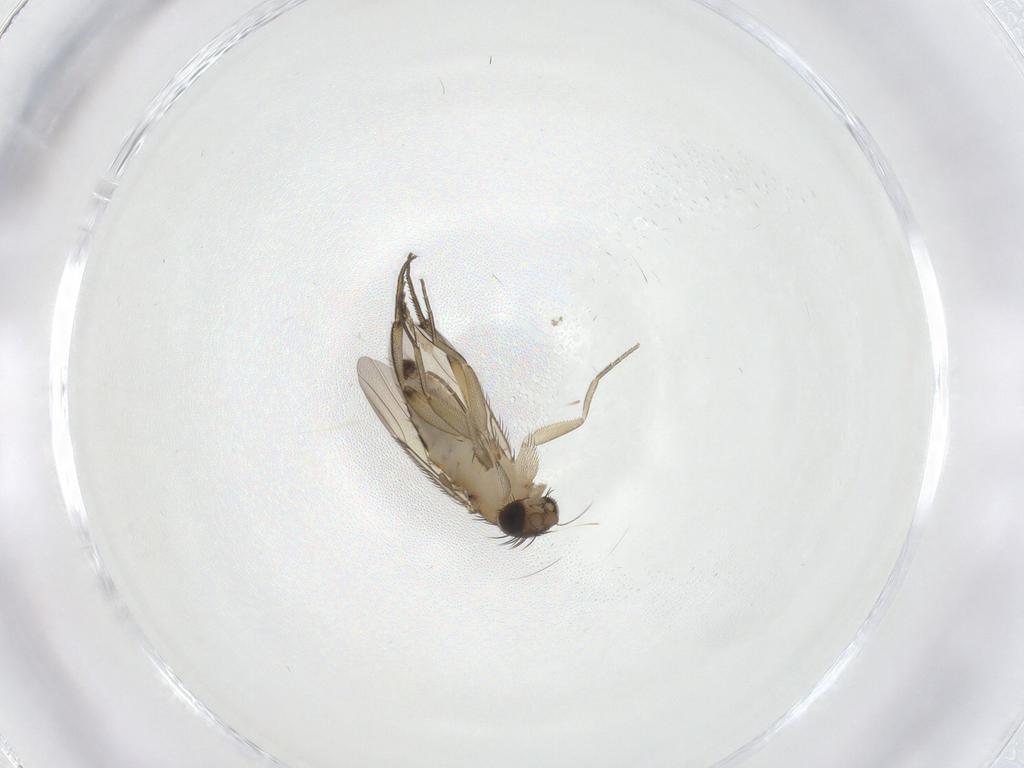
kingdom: Animalia
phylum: Arthropoda
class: Insecta
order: Diptera
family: Phoridae
